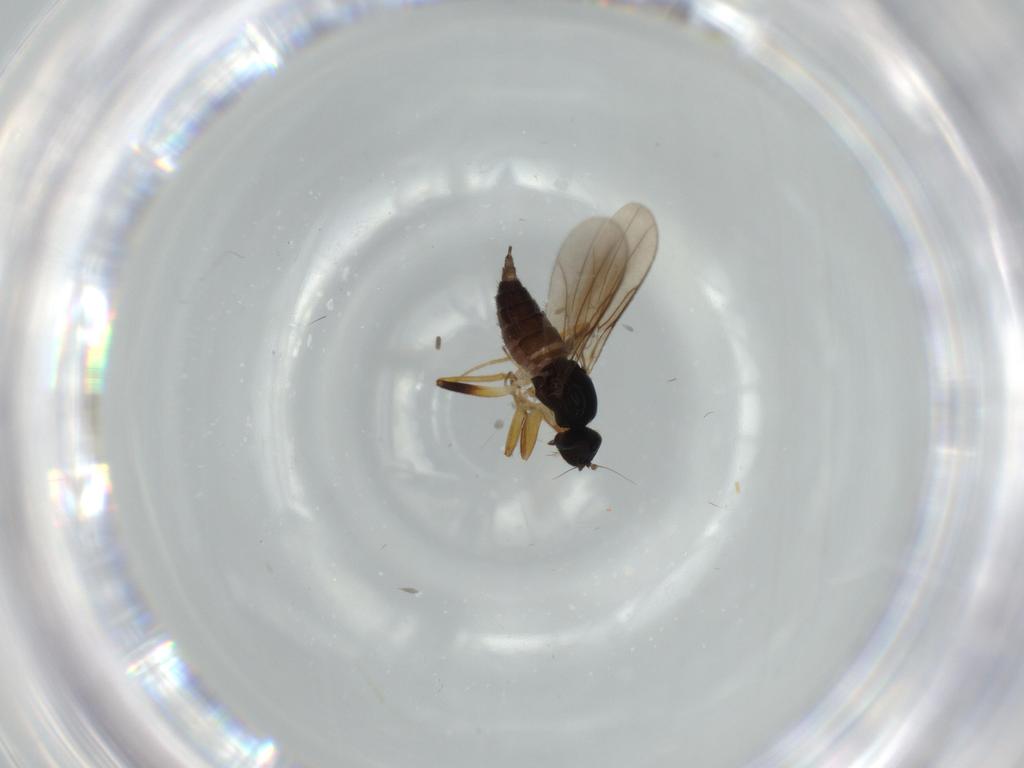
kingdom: Animalia
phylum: Arthropoda
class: Insecta
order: Diptera
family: Hybotidae
